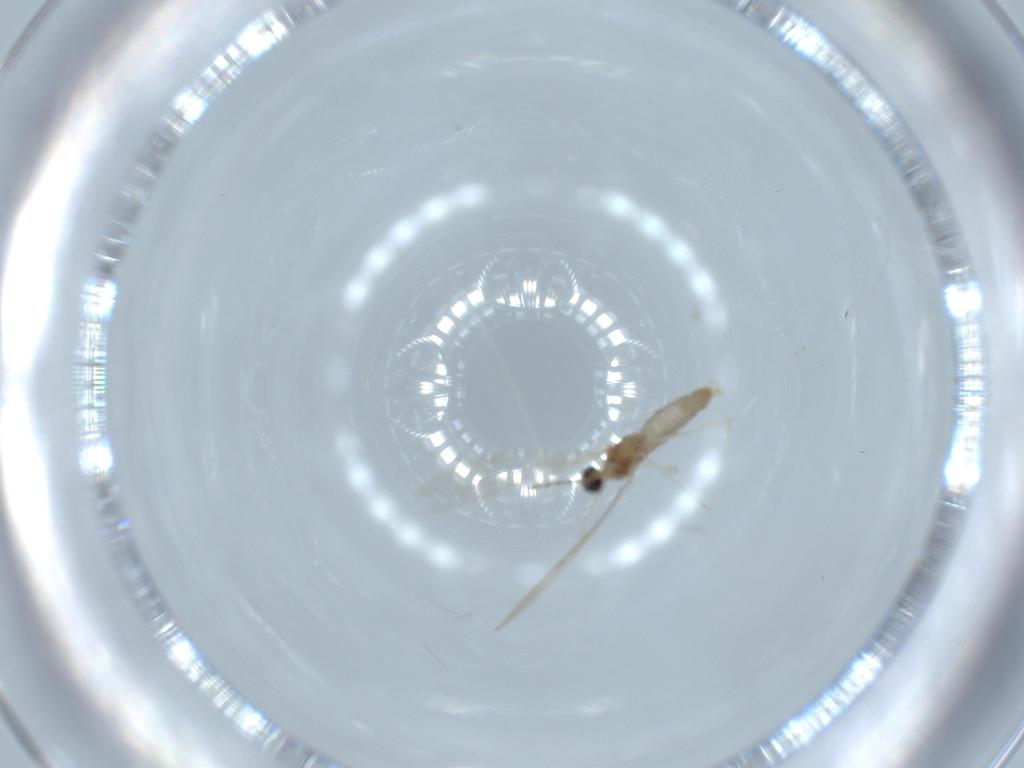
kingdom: Animalia
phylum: Arthropoda
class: Insecta
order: Diptera
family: Cecidomyiidae
